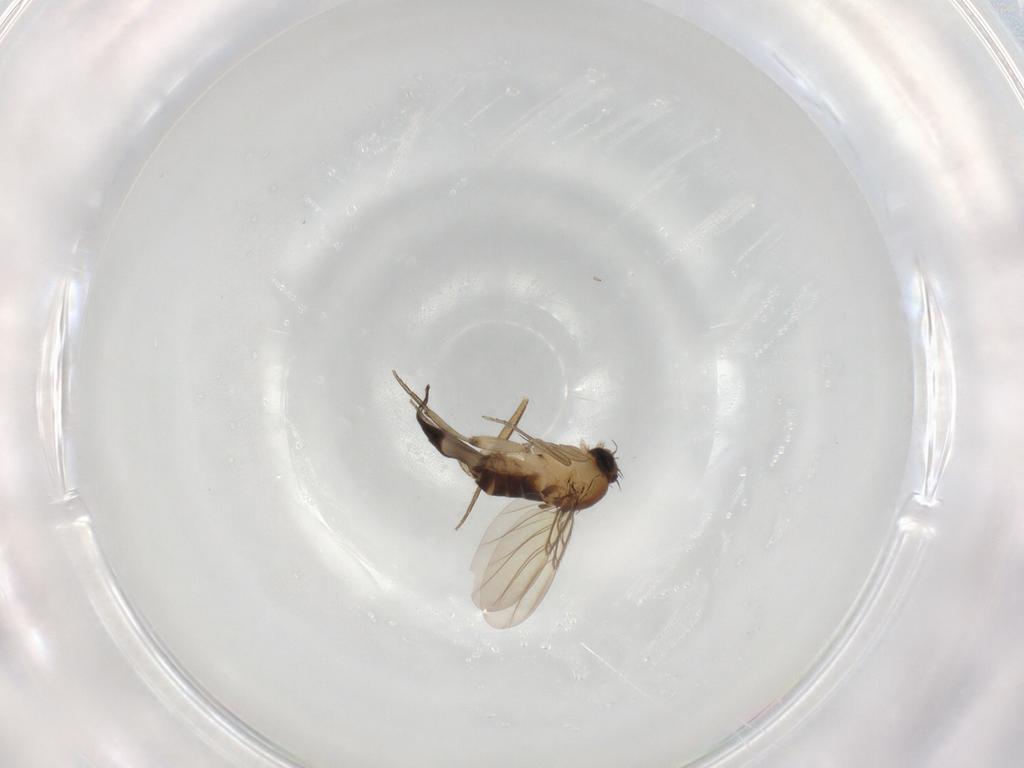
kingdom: Animalia
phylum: Arthropoda
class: Insecta
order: Diptera
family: Phoridae
